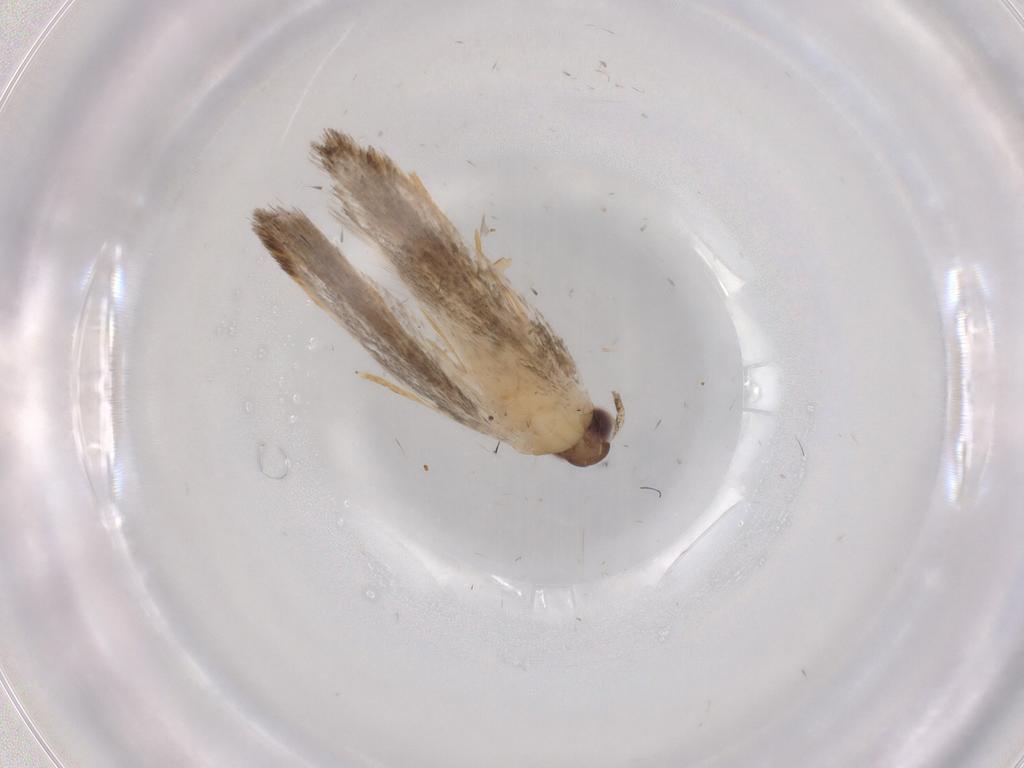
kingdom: Animalia
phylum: Arthropoda
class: Insecta
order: Lepidoptera
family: Autostichidae
